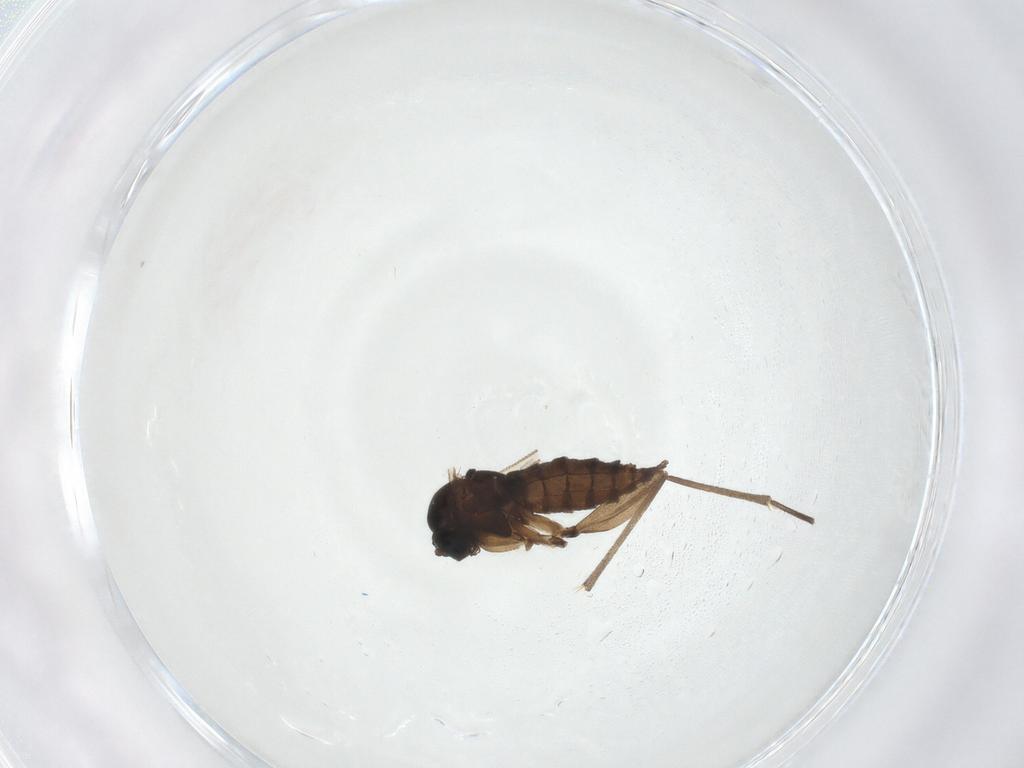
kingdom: Animalia
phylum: Arthropoda
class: Insecta
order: Diptera
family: Sciaridae
